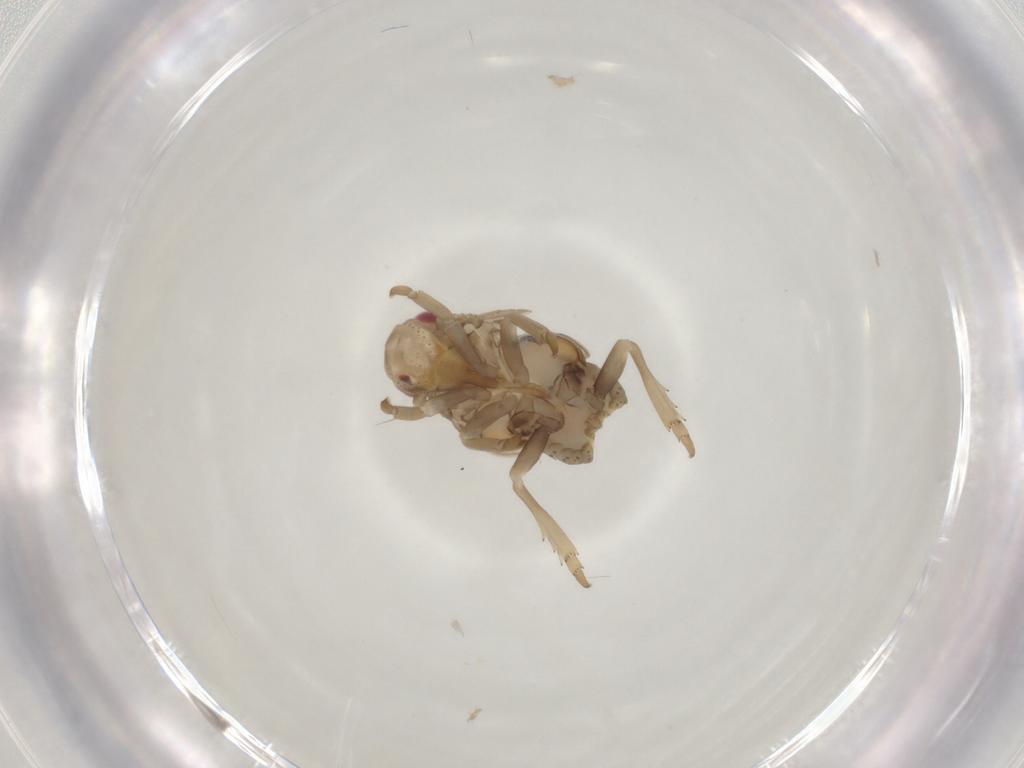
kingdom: Animalia
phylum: Arthropoda
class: Insecta
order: Hemiptera
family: Flatidae
